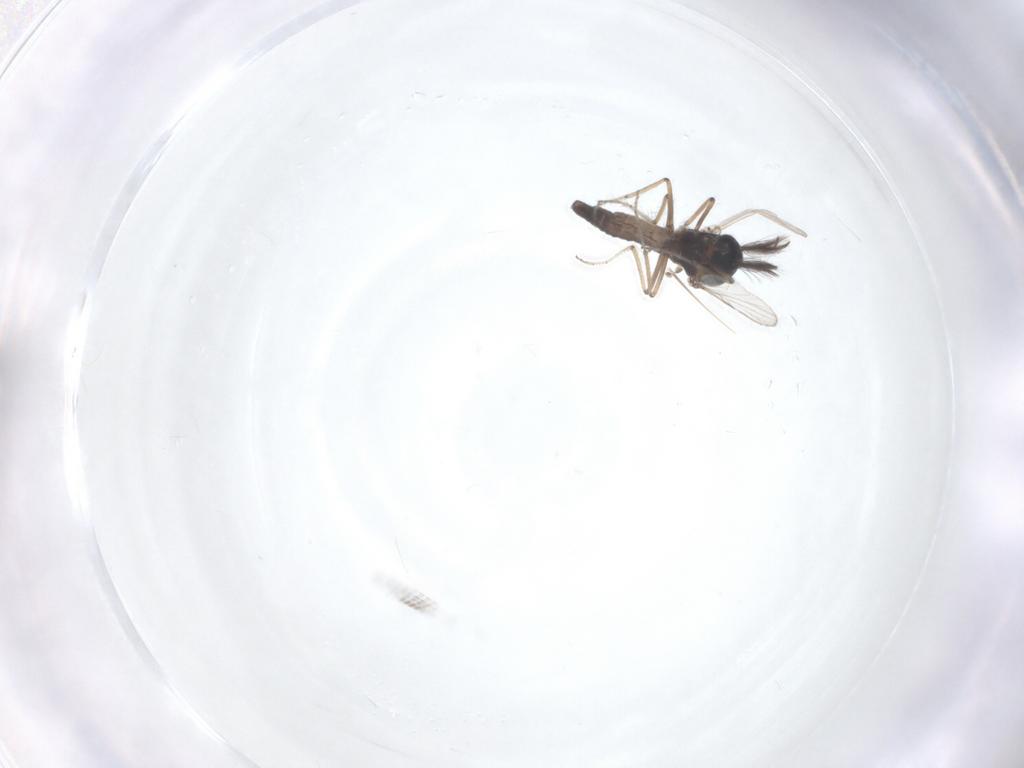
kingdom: Animalia
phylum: Arthropoda
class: Insecta
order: Diptera
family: Ceratopogonidae
